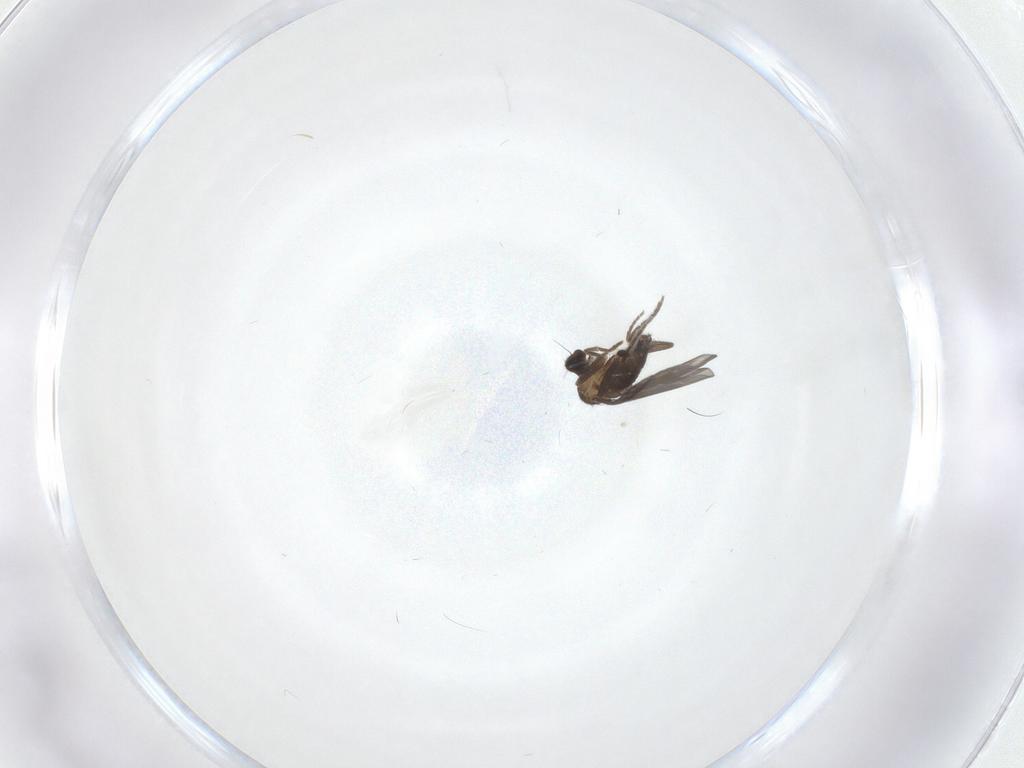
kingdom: Animalia
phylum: Arthropoda
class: Insecta
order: Diptera
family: Phoridae
